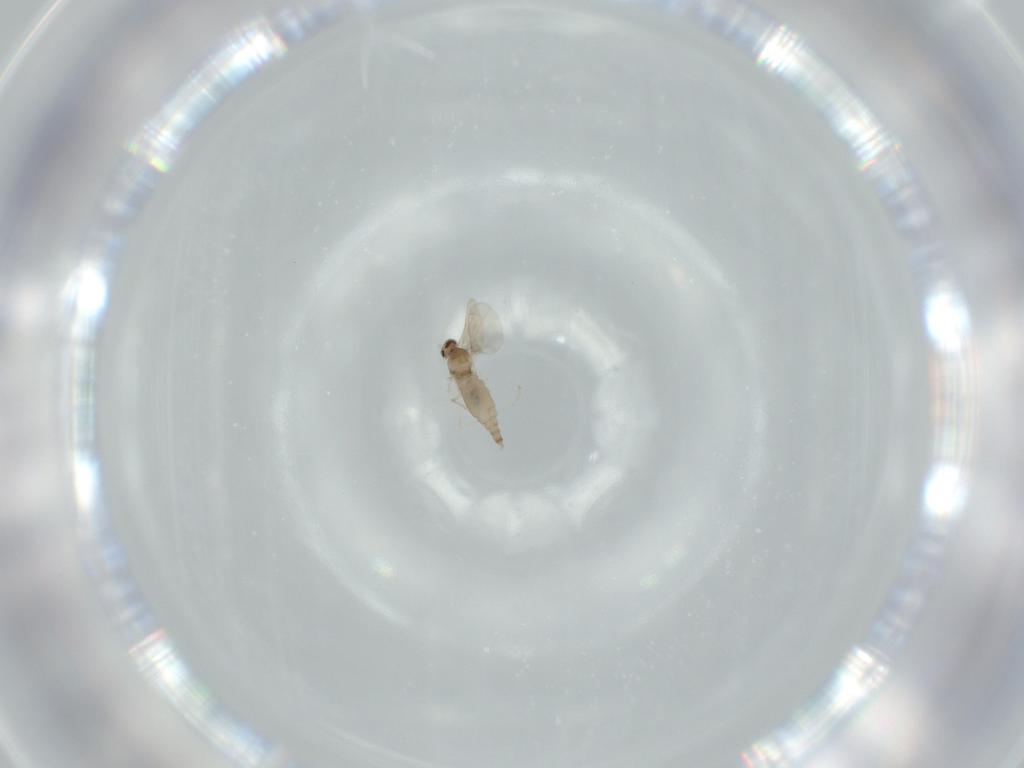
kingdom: Animalia
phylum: Arthropoda
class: Insecta
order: Diptera
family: Cecidomyiidae
